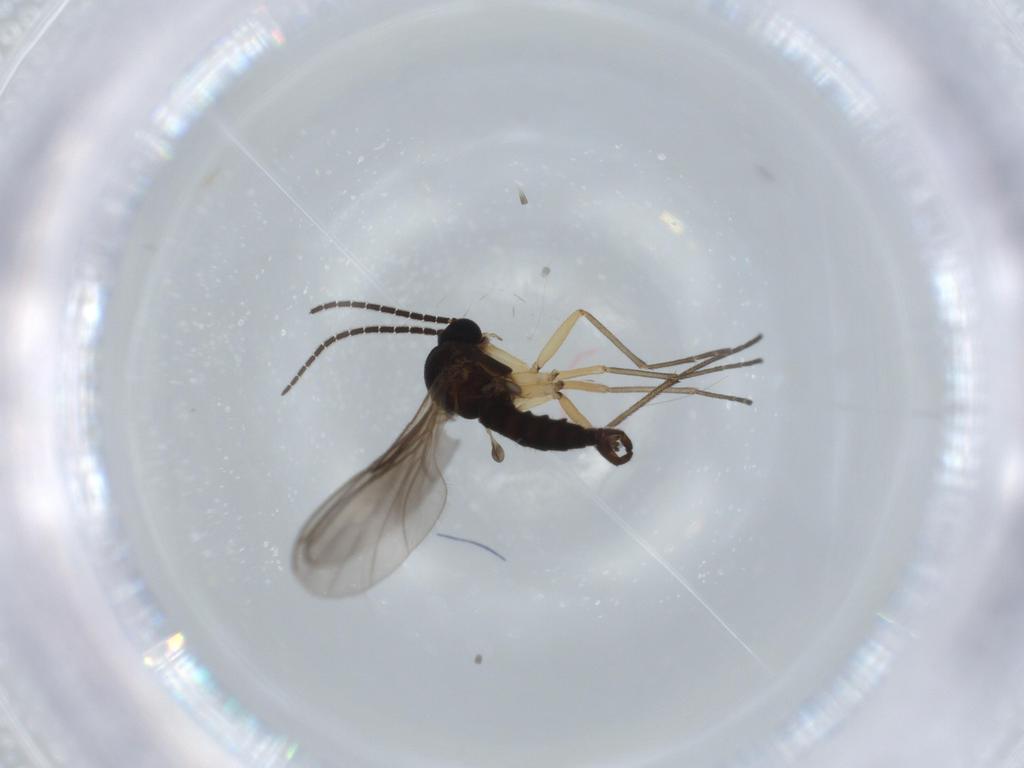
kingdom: Animalia
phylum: Arthropoda
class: Insecta
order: Diptera
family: Sciaridae
